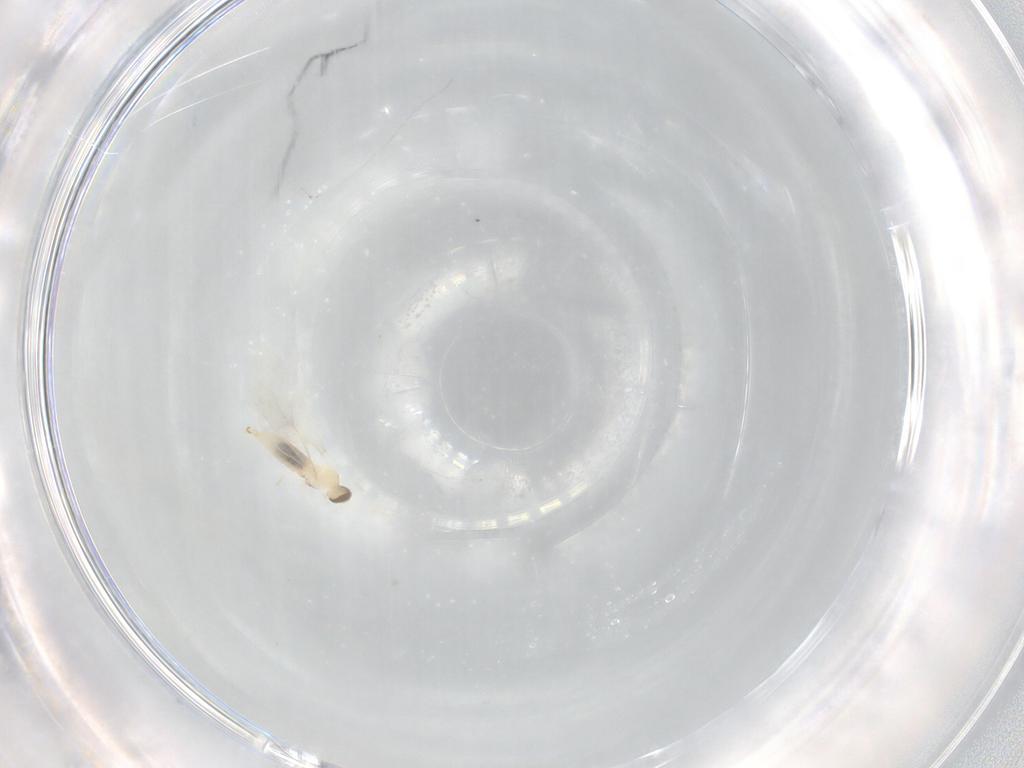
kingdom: Animalia
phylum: Arthropoda
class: Insecta
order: Diptera
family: Cecidomyiidae
